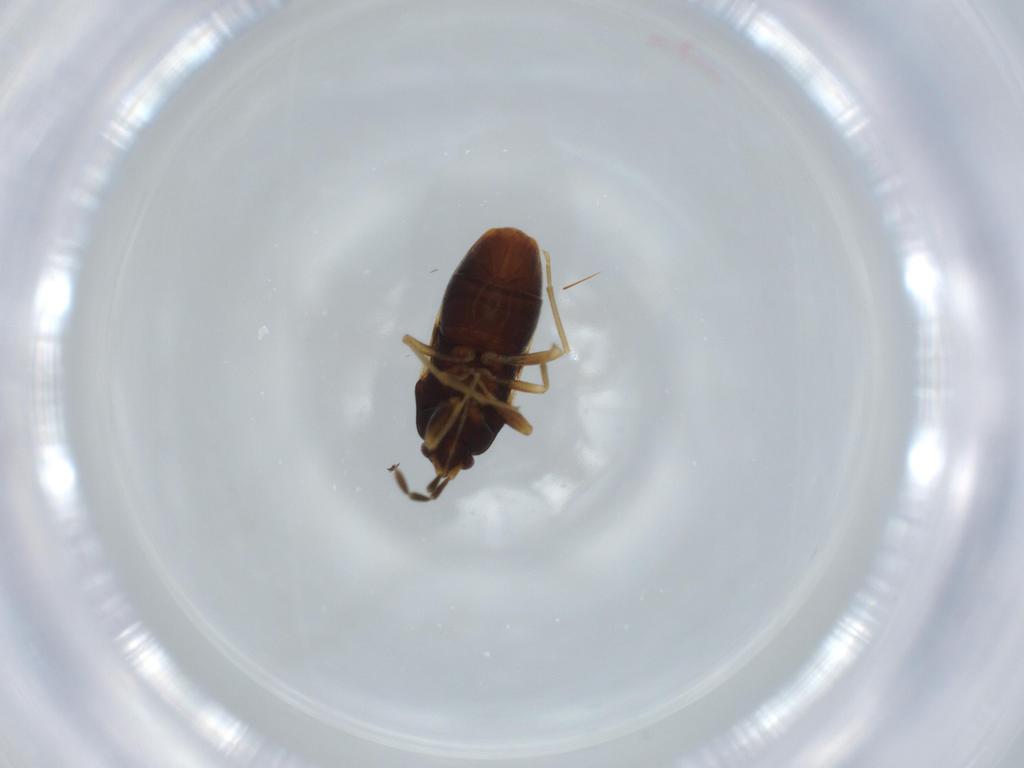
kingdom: Animalia
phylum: Arthropoda
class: Insecta
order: Hemiptera
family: Rhyparochromidae
